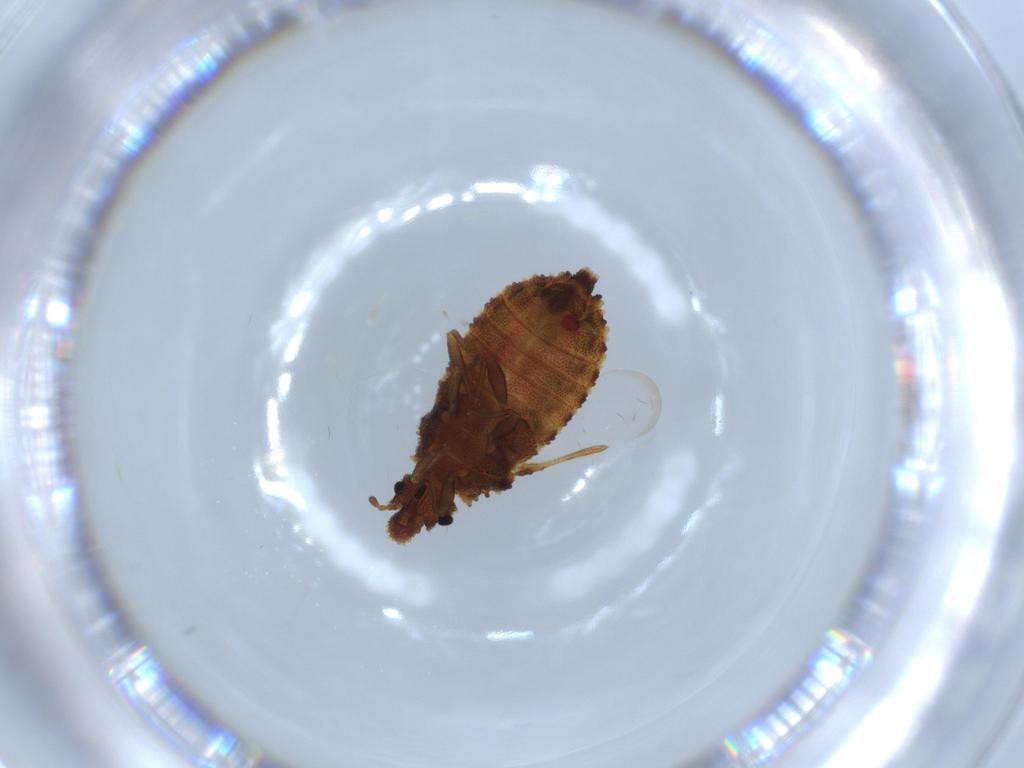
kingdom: Animalia
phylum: Arthropoda
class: Insecta
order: Hemiptera
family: Aradidae
